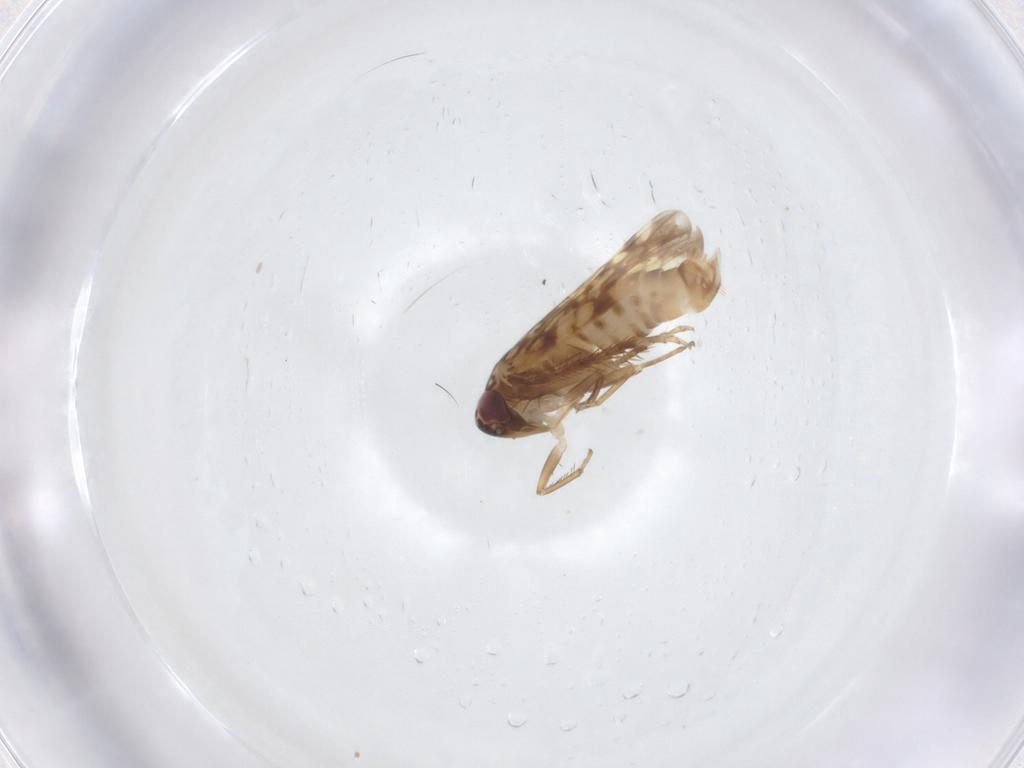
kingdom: Animalia
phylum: Arthropoda
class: Insecta
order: Hemiptera
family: Cicadellidae
